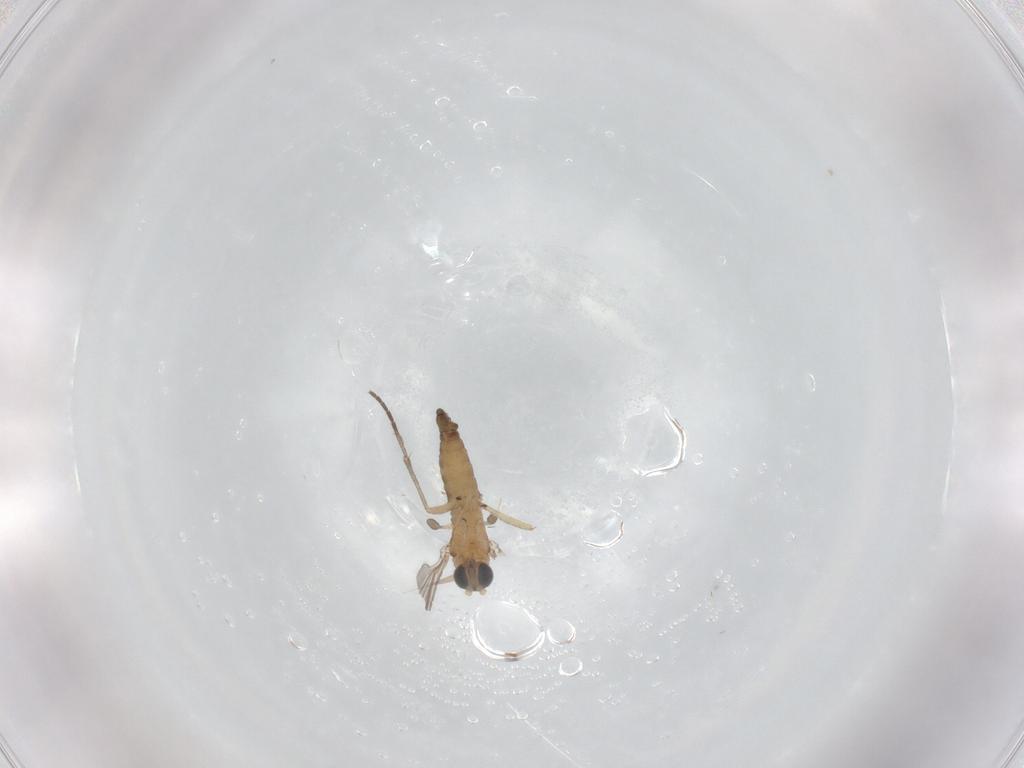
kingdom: Animalia
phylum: Arthropoda
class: Insecta
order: Diptera
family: Sciaridae
